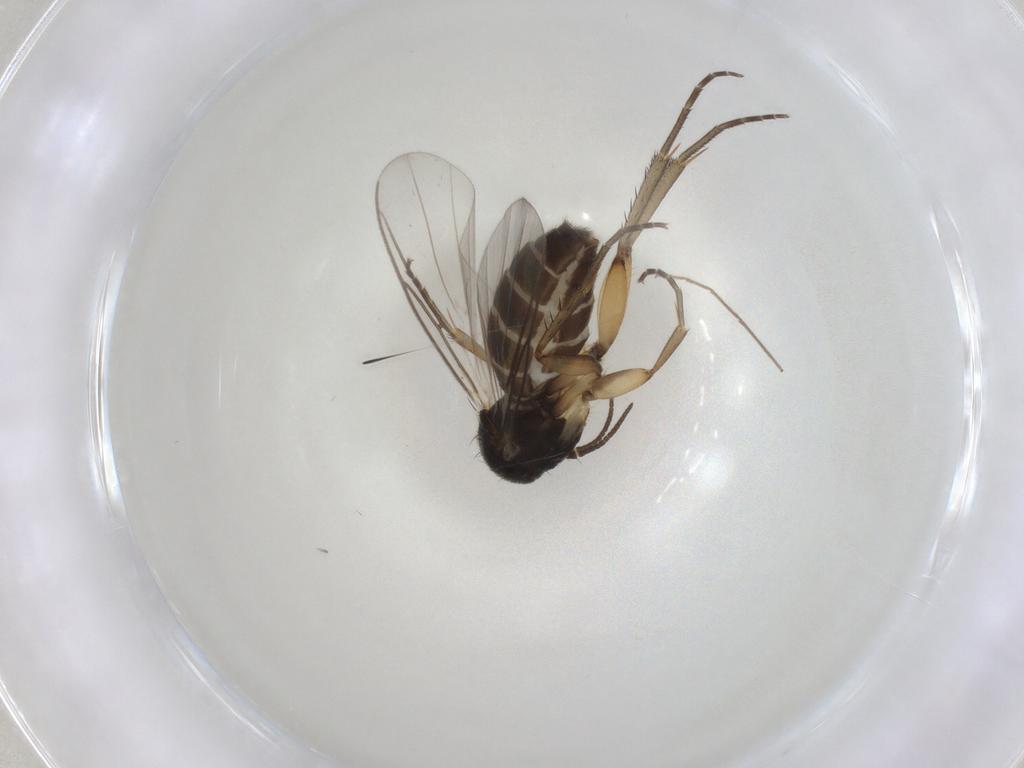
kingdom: Animalia
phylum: Arthropoda
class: Insecta
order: Diptera
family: Mycetophilidae
